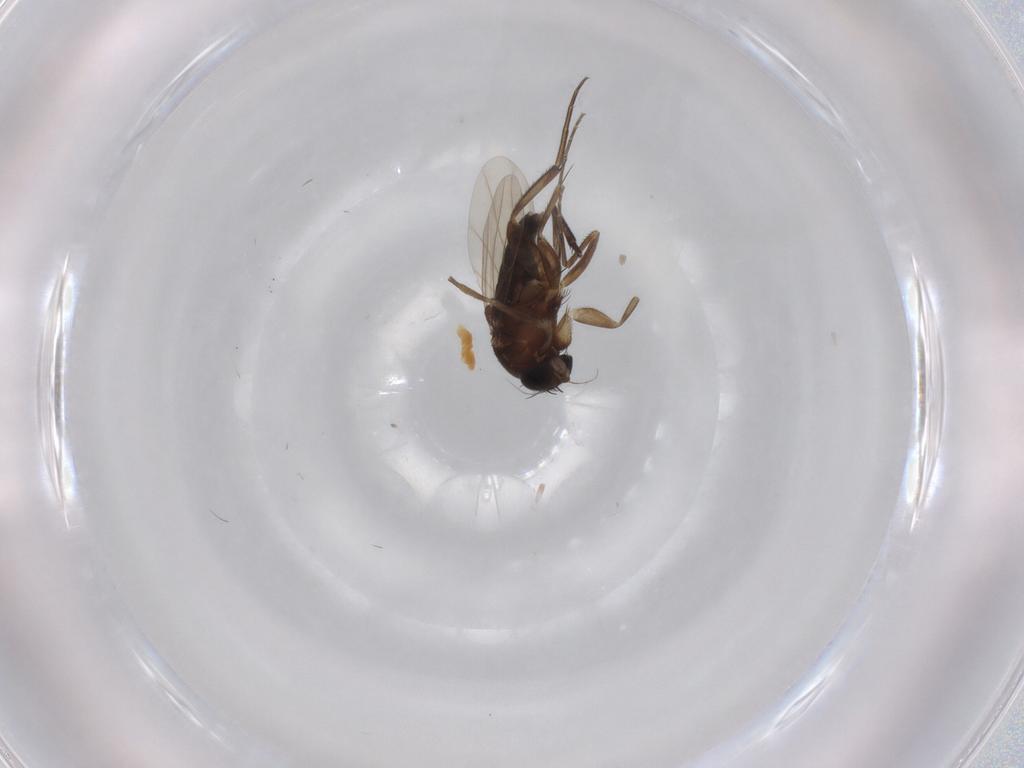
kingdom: Animalia
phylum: Arthropoda
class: Insecta
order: Diptera
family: Phoridae
